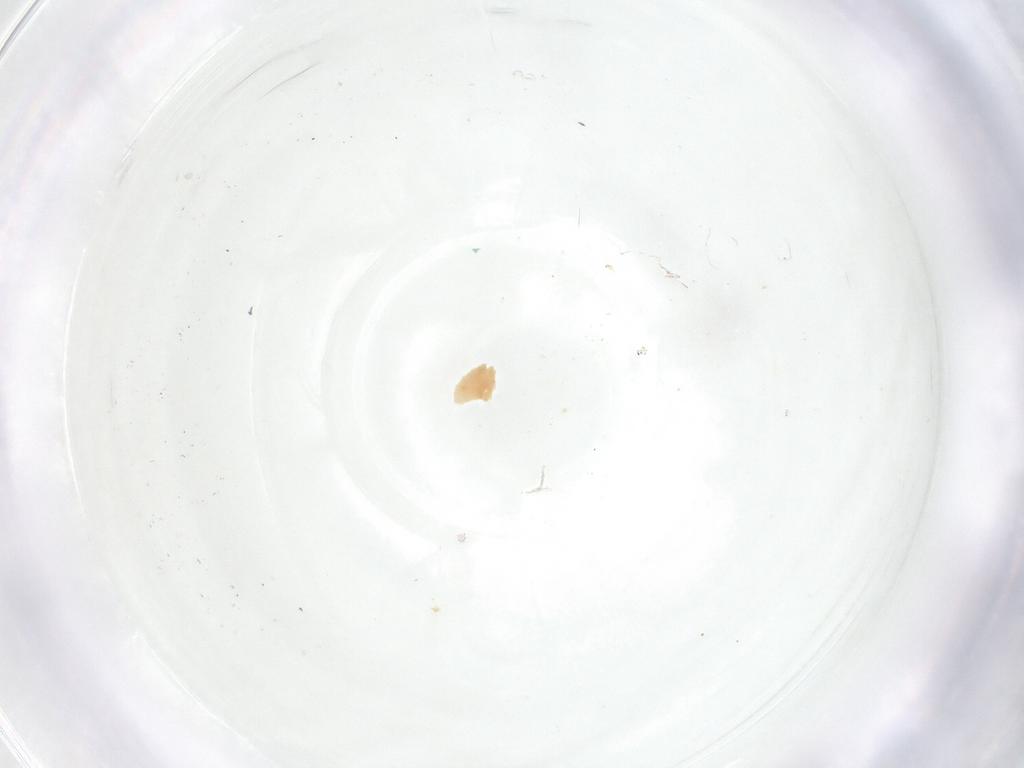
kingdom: Animalia
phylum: Arthropoda
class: Insecta
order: Diptera
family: Fergusoninidae
